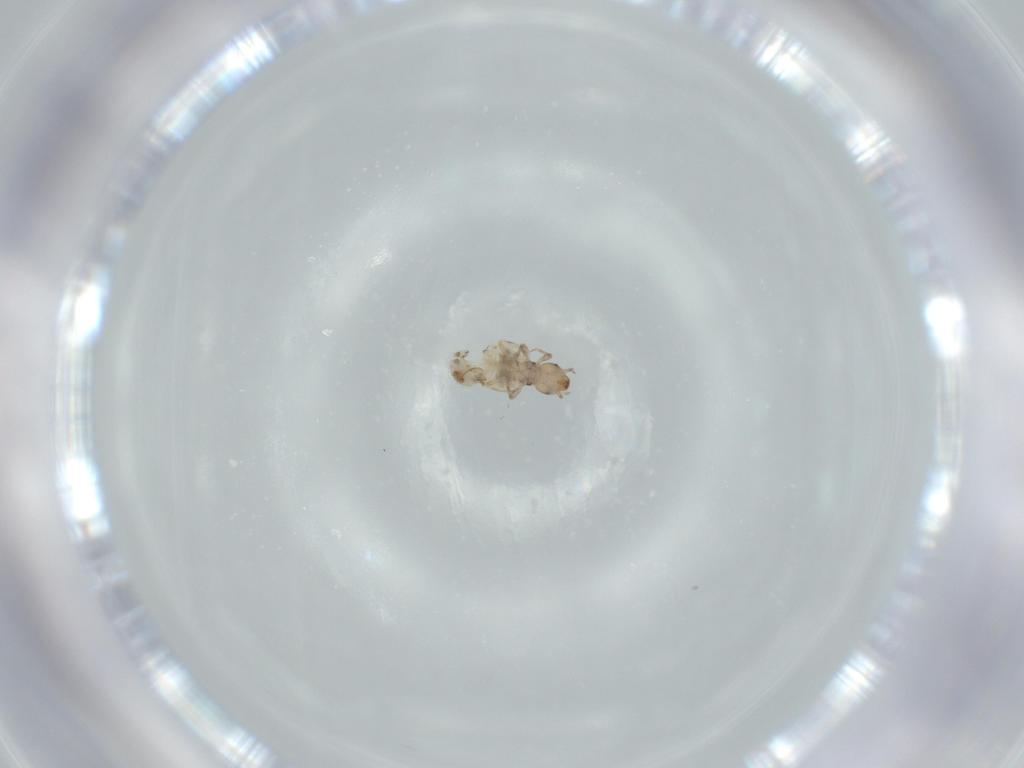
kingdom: Animalia
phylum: Arthropoda
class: Insecta
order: Psocodea
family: Liposcelididae
